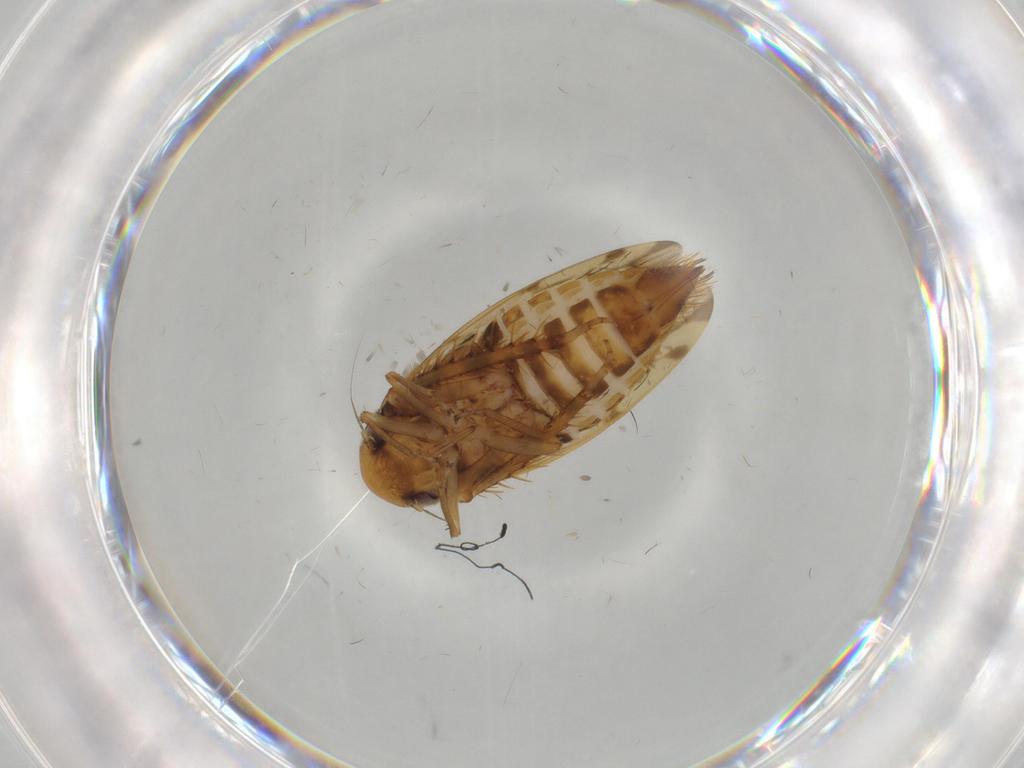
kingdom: Animalia
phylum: Arthropoda
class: Insecta
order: Hemiptera
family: Cicadellidae
